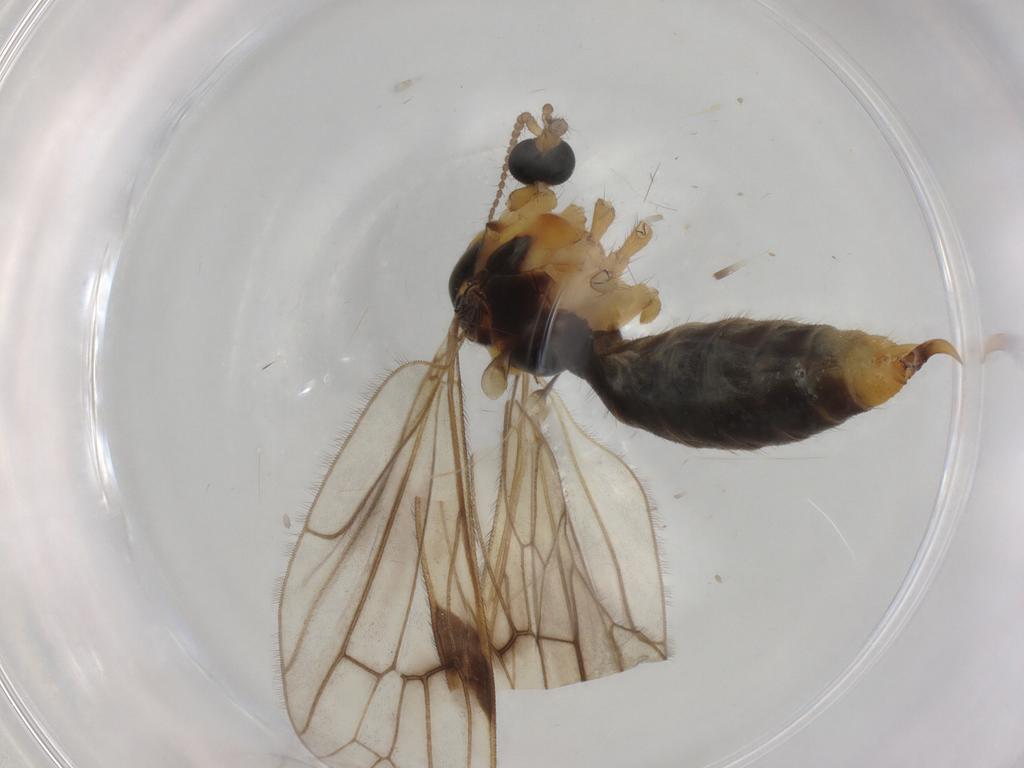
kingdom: Animalia
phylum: Arthropoda
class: Insecta
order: Diptera
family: Limoniidae
